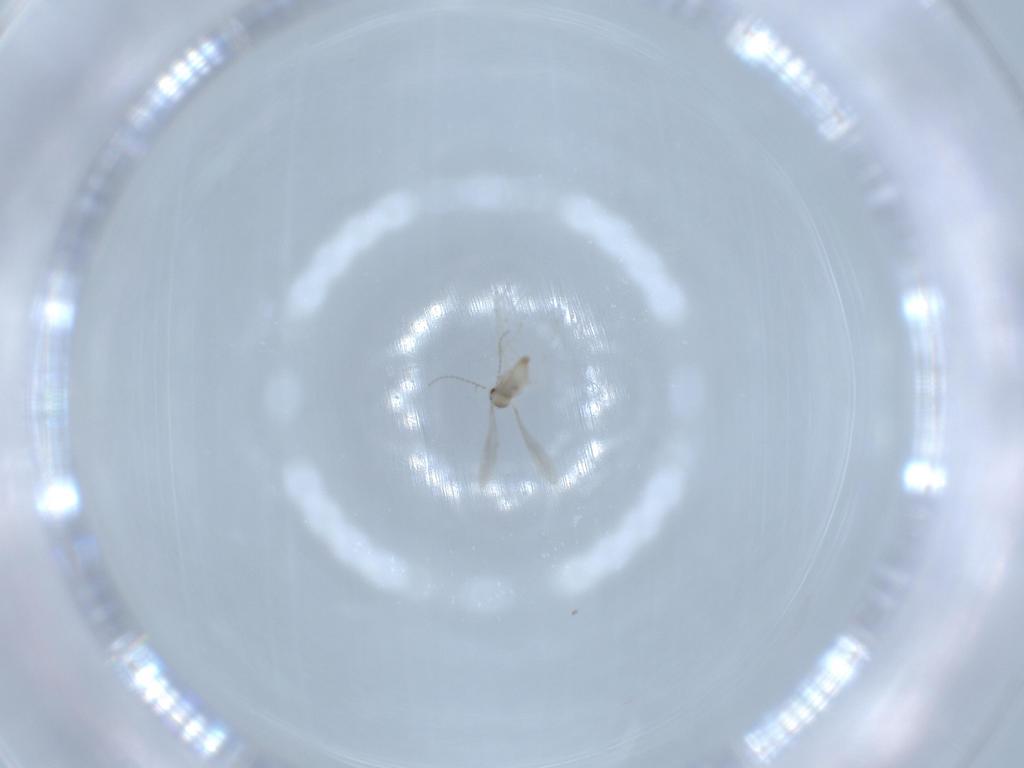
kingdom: Animalia
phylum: Arthropoda
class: Insecta
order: Diptera
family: Cecidomyiidae
